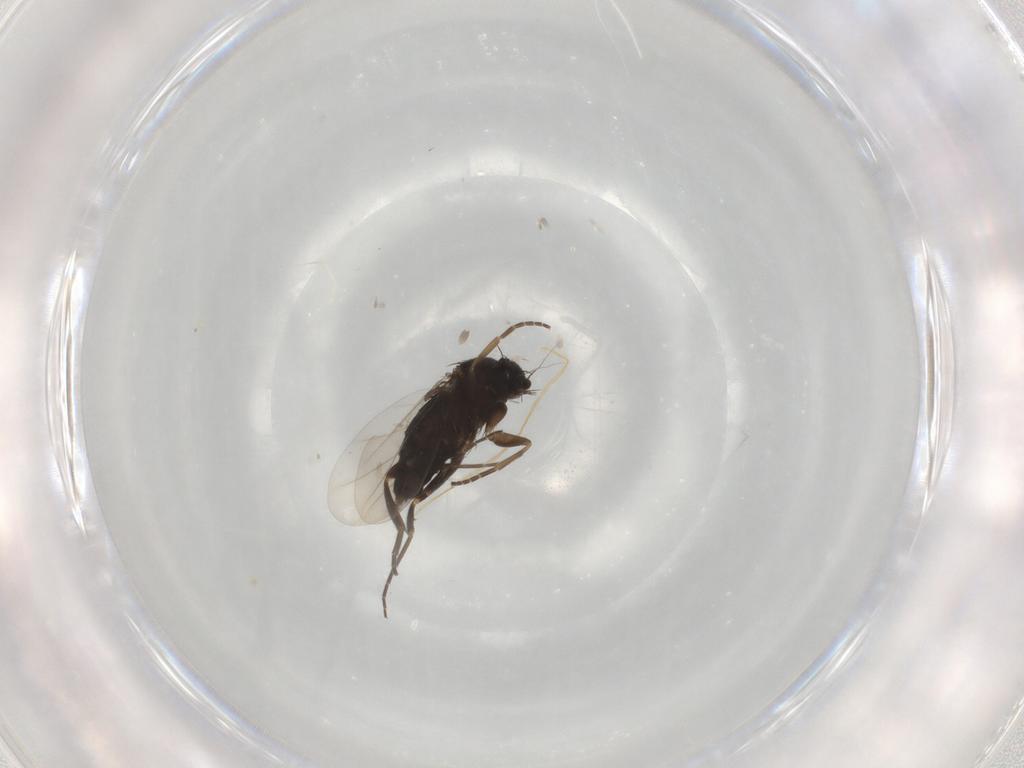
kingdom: Animalia
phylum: Arthropoda
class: Insecta
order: Diptera
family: Phoridae
